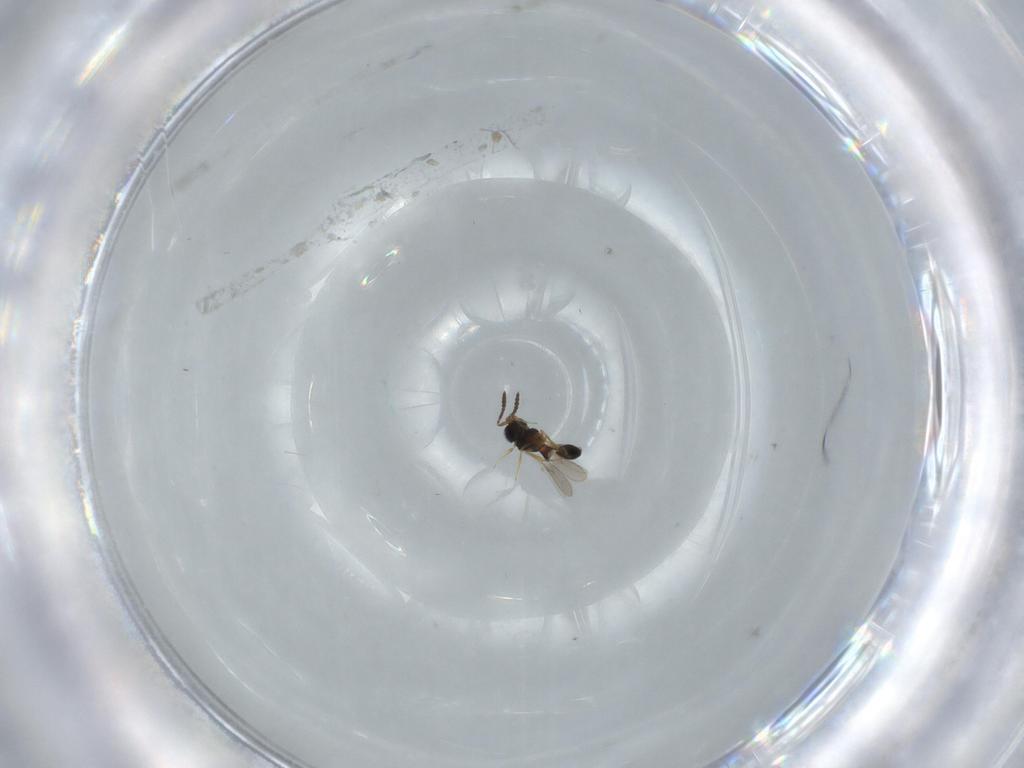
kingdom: Animalia
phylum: Arthropoda
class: Insecta
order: Hymenoptera
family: Scelionidae
